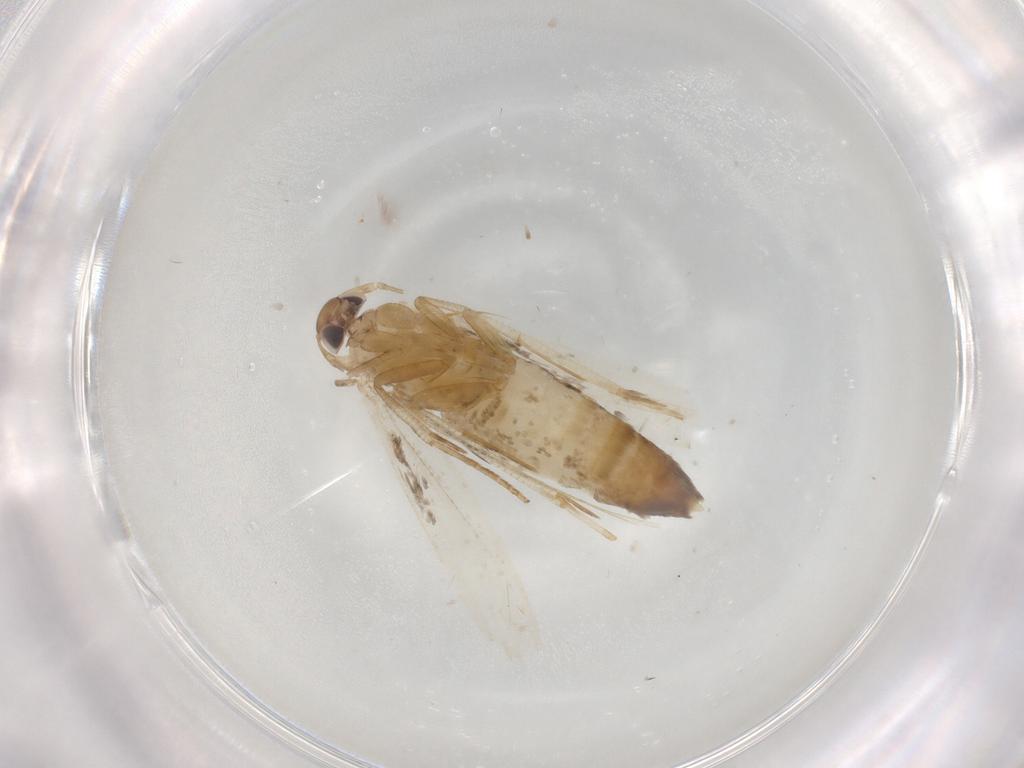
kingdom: Animalia
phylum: Arthropoda
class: Insecta
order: Lepidoptera
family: Cosmopterigidae
